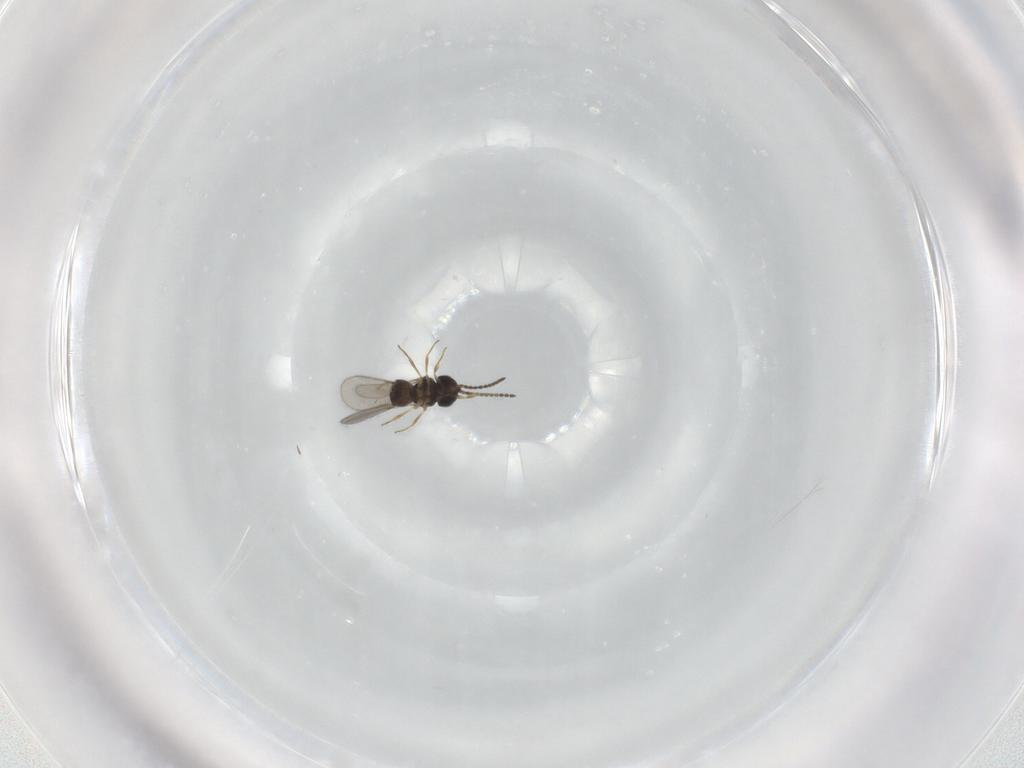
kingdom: Animalia
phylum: Arthropoda
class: Insecta
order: Hymenoptera
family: Scelionidae
